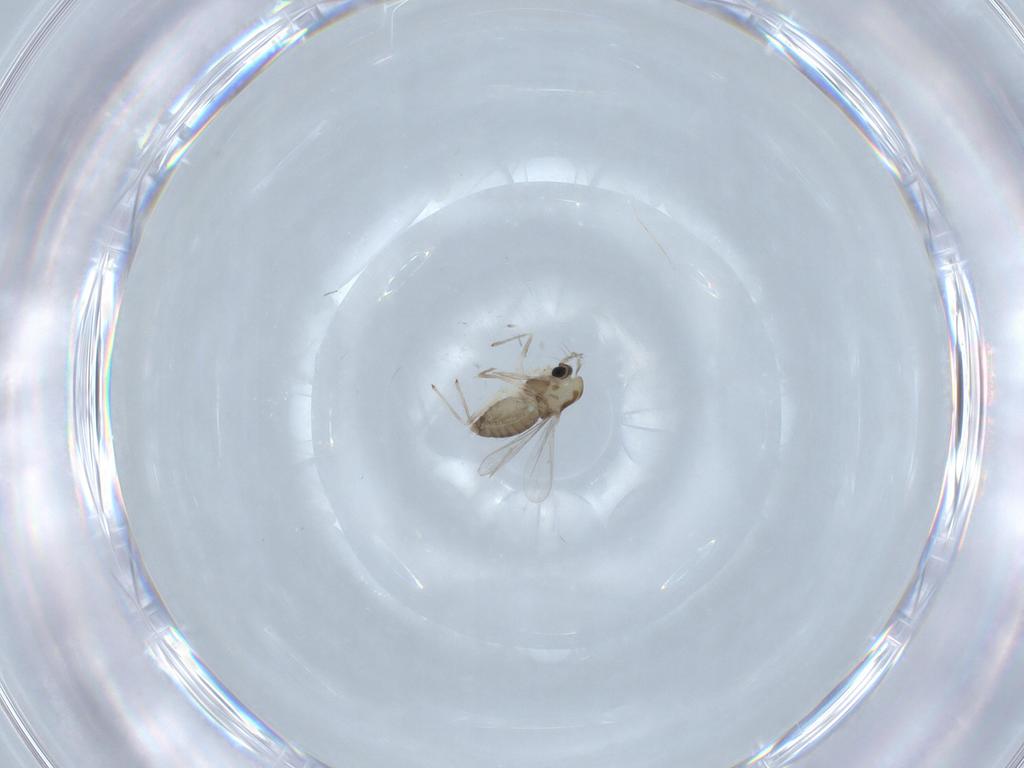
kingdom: Animalia
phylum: Arthropoda
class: Insecta
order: Diptera
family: Chironomidae
